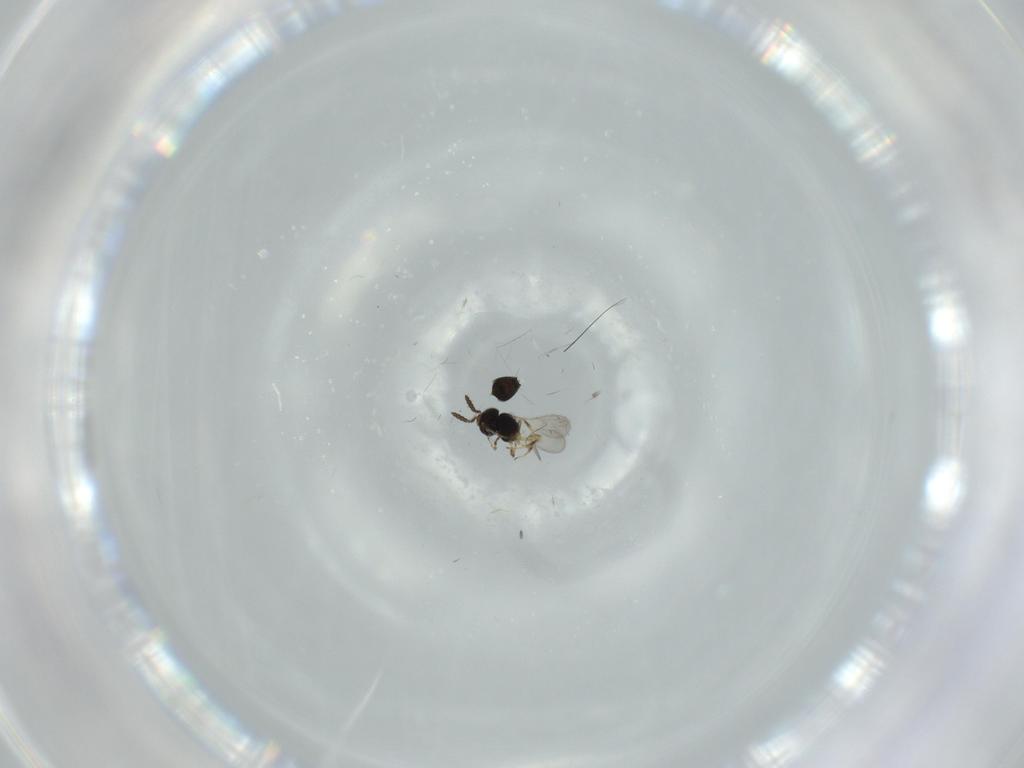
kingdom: Animalia
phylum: Arthropoda
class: Insecta
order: Hymenoptera
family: Scelionidae
